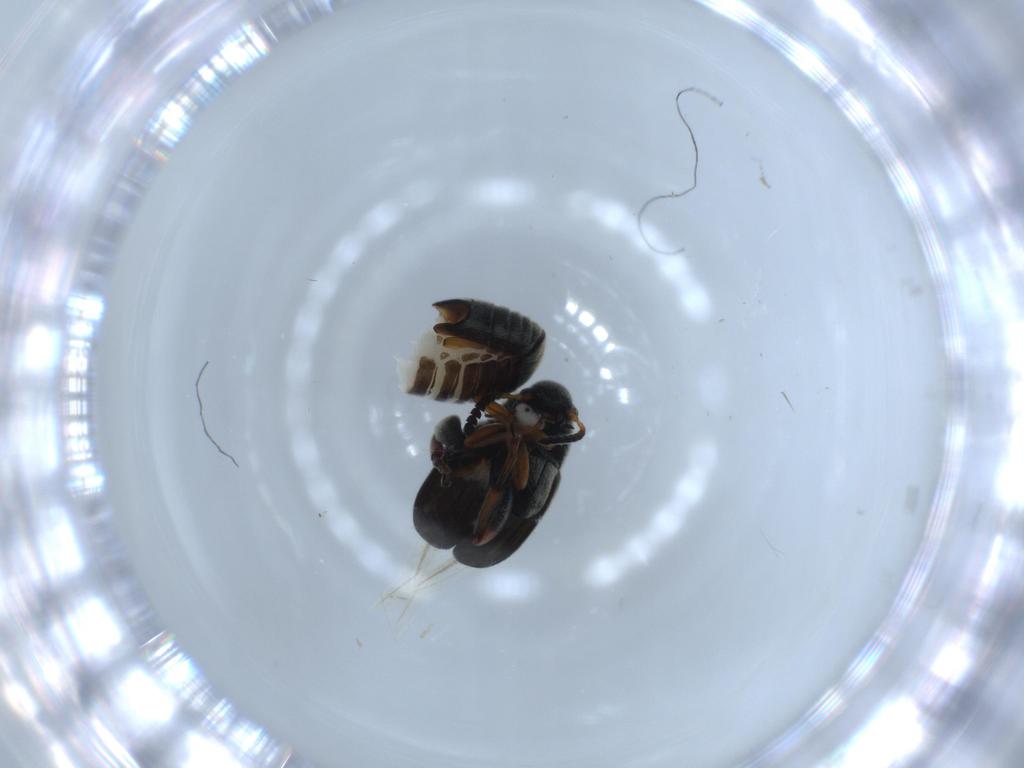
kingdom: Animalia
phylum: Arthropoda
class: Insecta
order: Coleoptera
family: Chrysomelidae
